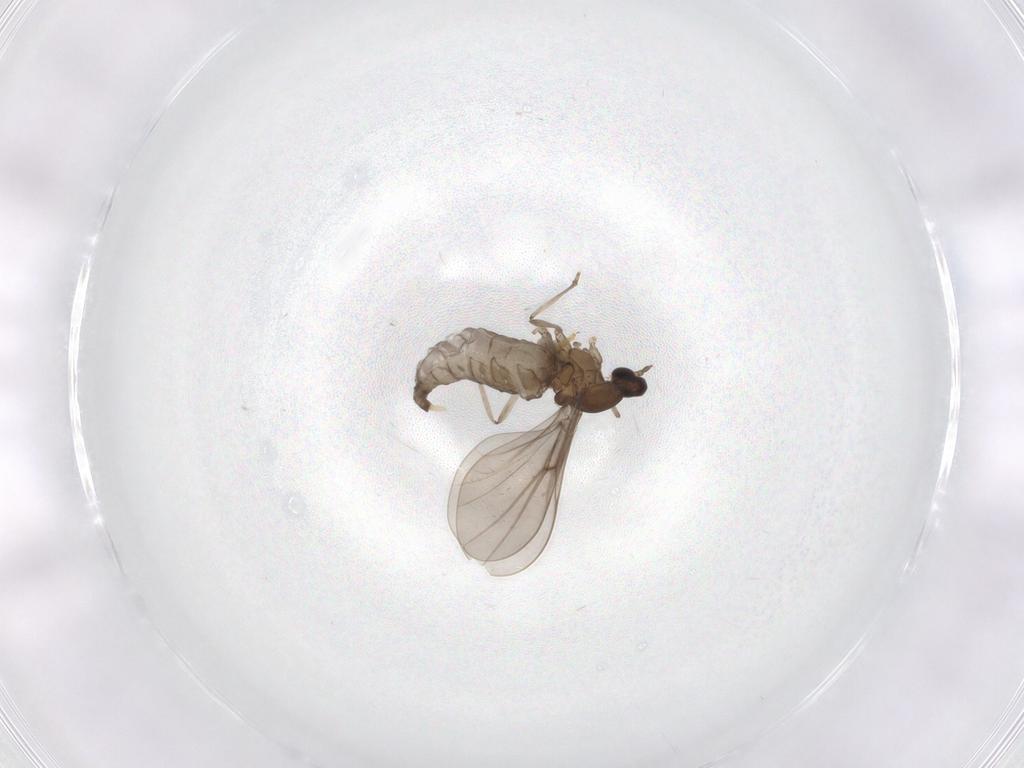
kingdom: Animalia
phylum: Arthropoda
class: Insecta
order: Diptera
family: Cecidomyiidae
